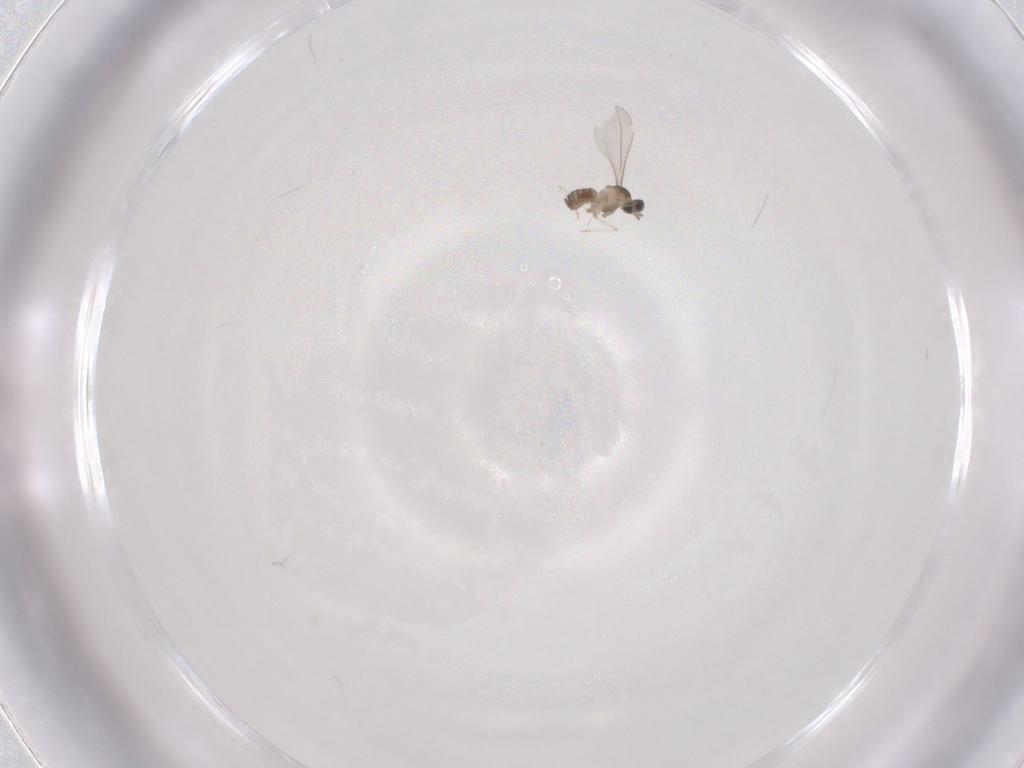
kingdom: Animalia
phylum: Arthropoda
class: Insecta
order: Diptera
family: Cecidomyiidae
